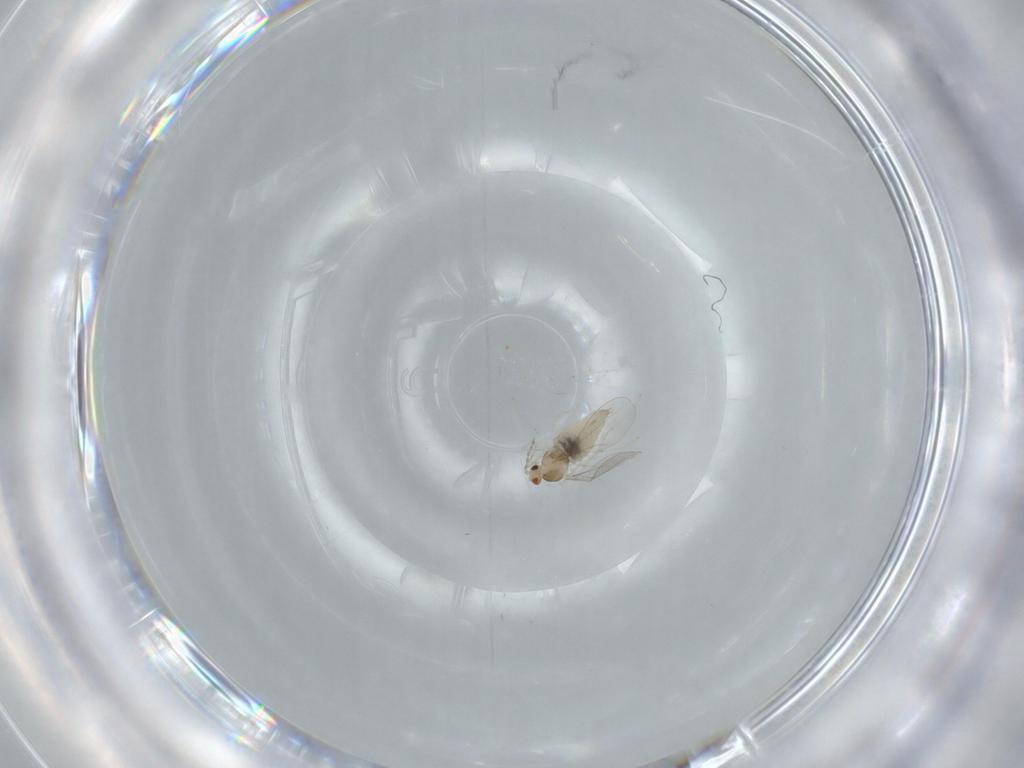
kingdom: Animalia
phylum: Arthropoda
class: Insecta
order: Diptera
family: Cecidomyiidae
